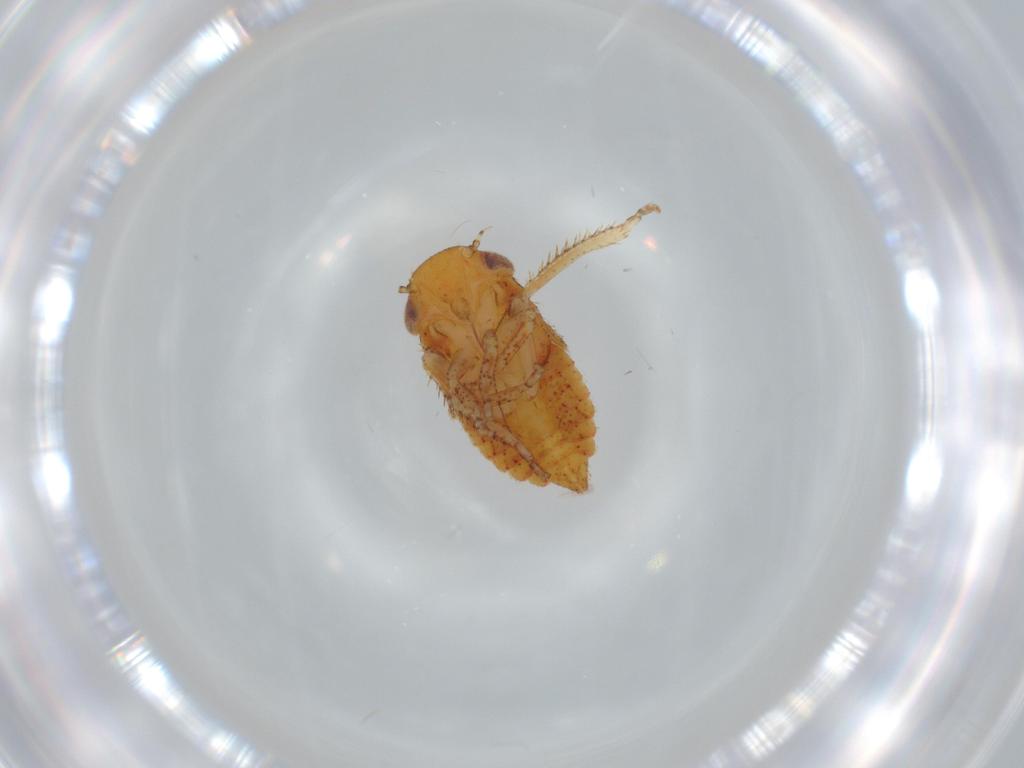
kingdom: Animalia
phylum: Arthropoda
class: Insecta
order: Hemiptera
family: Cicadellidae
